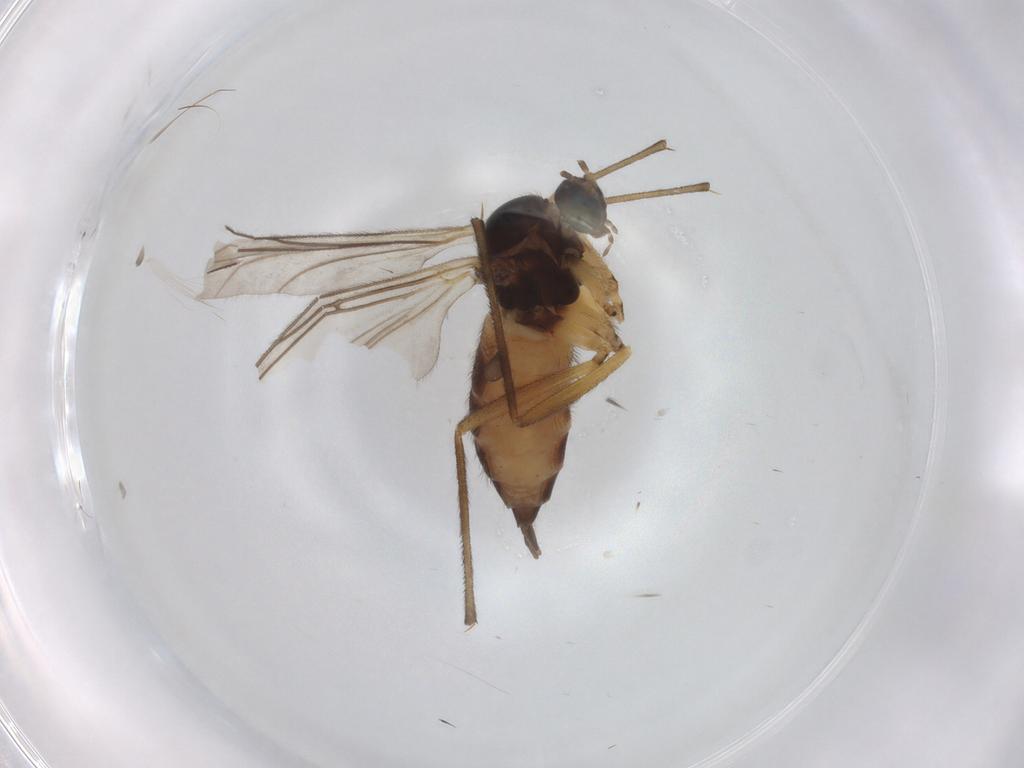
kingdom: Animalia
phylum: Arthropoda
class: Insecta
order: Diptera
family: Sciaridae
